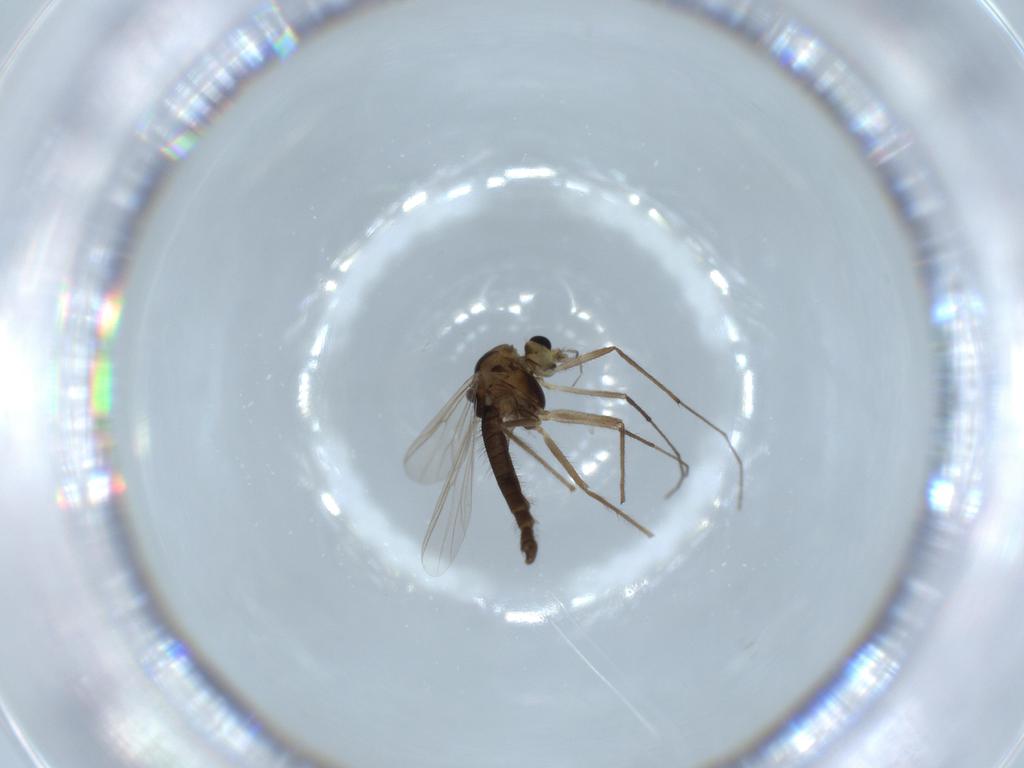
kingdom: Animalia
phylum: Arthropoda
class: Insecta
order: Diptera
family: Chironomidae
